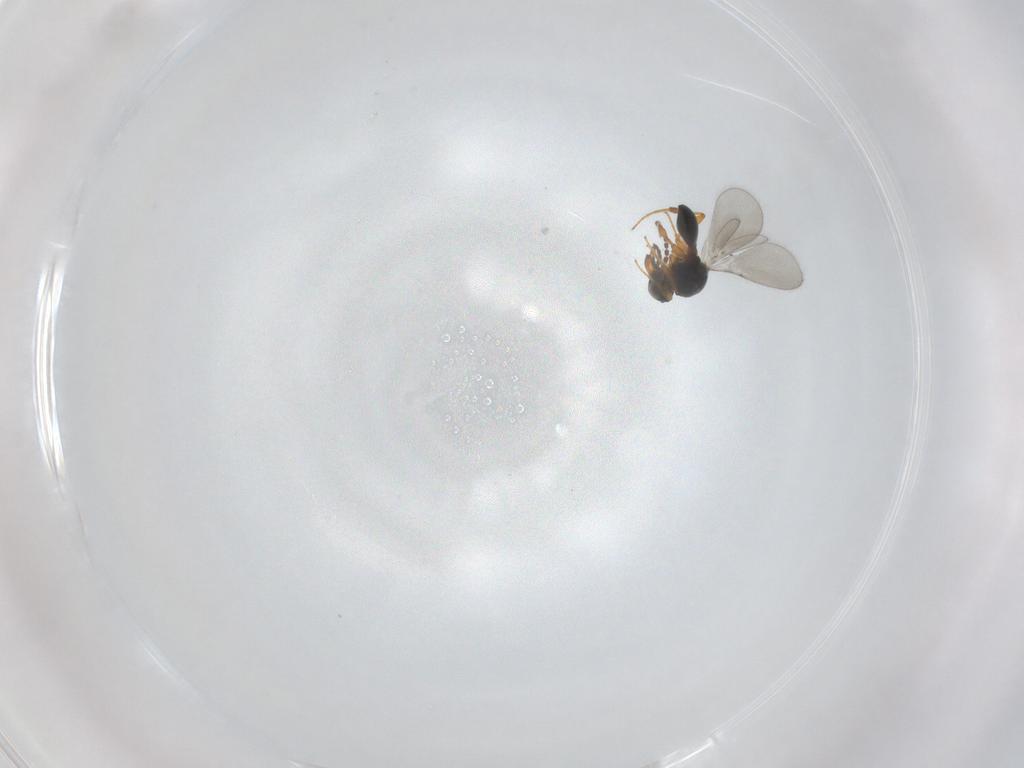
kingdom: Animalia
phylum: Arthropoda
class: Insecta
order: Hymenoptera
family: Platygastridae
